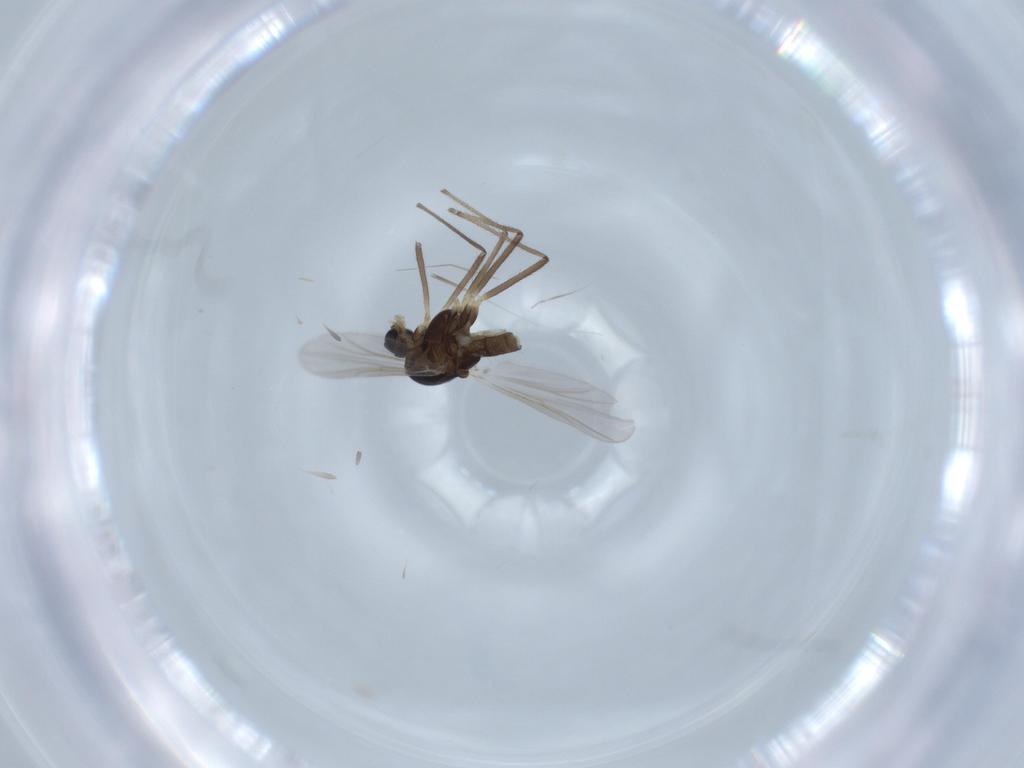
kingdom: Animalia
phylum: Arthropoda
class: Insecta
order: Diptera
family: Chironomidae
